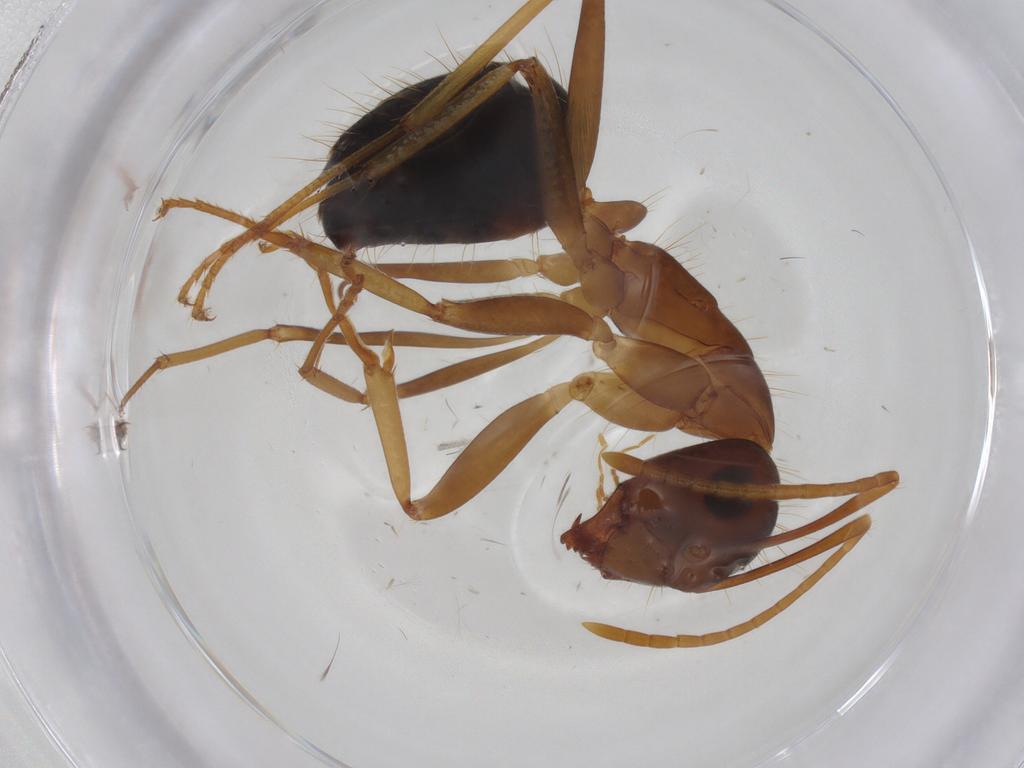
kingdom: Animalia
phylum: Arthropoda
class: Insecta
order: Hymenoptera
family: Formicidae
